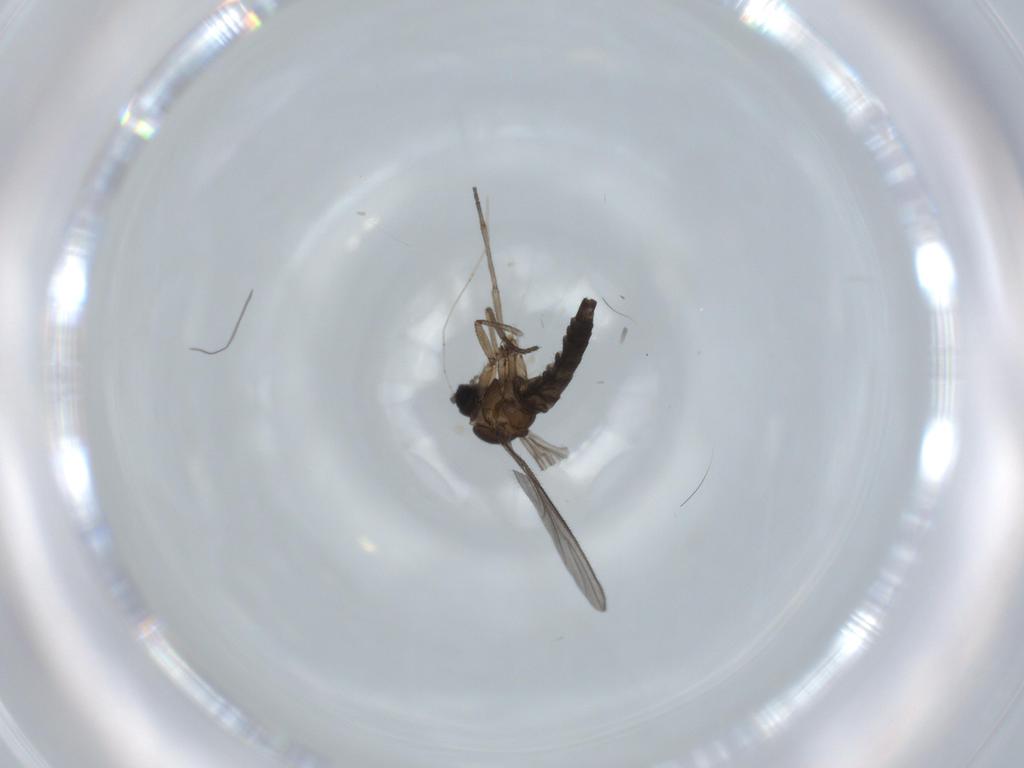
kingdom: Animalia
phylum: Arthropoda
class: Insecta
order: Diptera
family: Sciaridae
